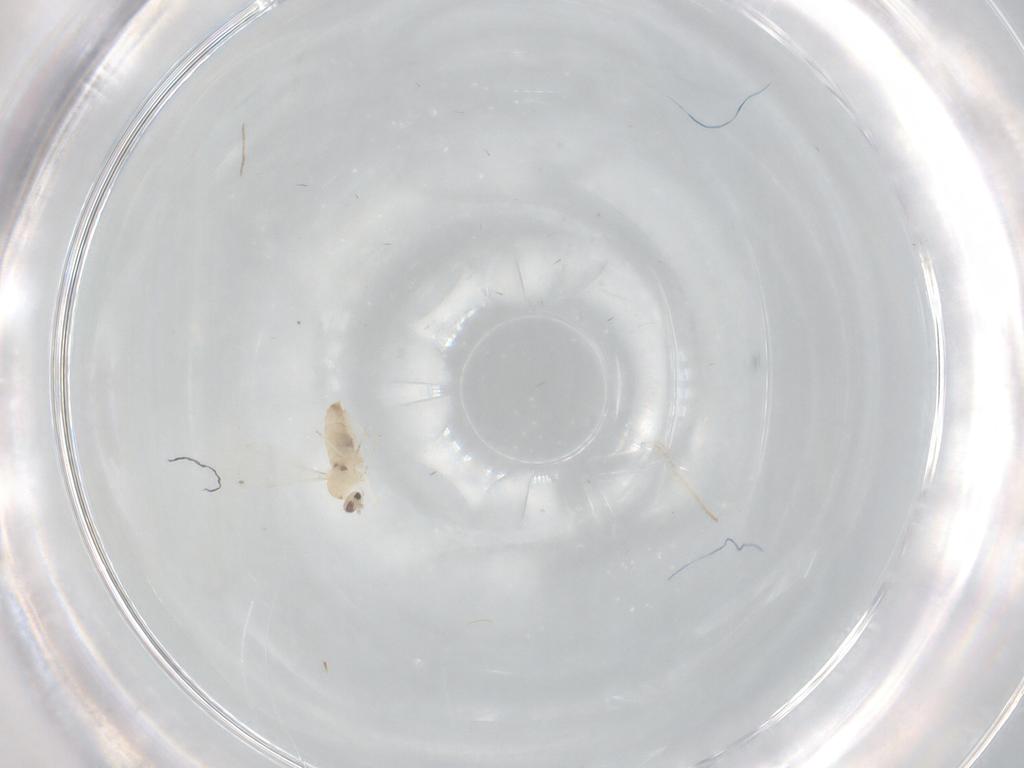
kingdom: Animalia
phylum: Arthropoda
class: Insecta
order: Diptera
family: Cecidomyiidae
